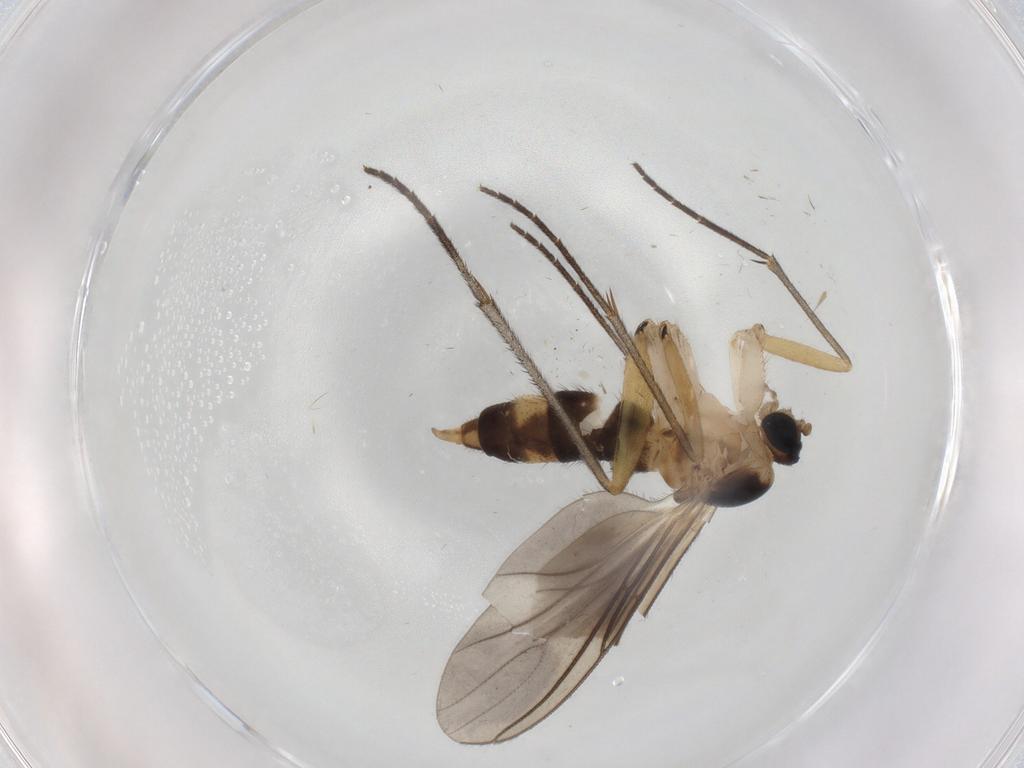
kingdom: Animalia
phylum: Arthropoda
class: Insecta
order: Diptera
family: Sciaridae
